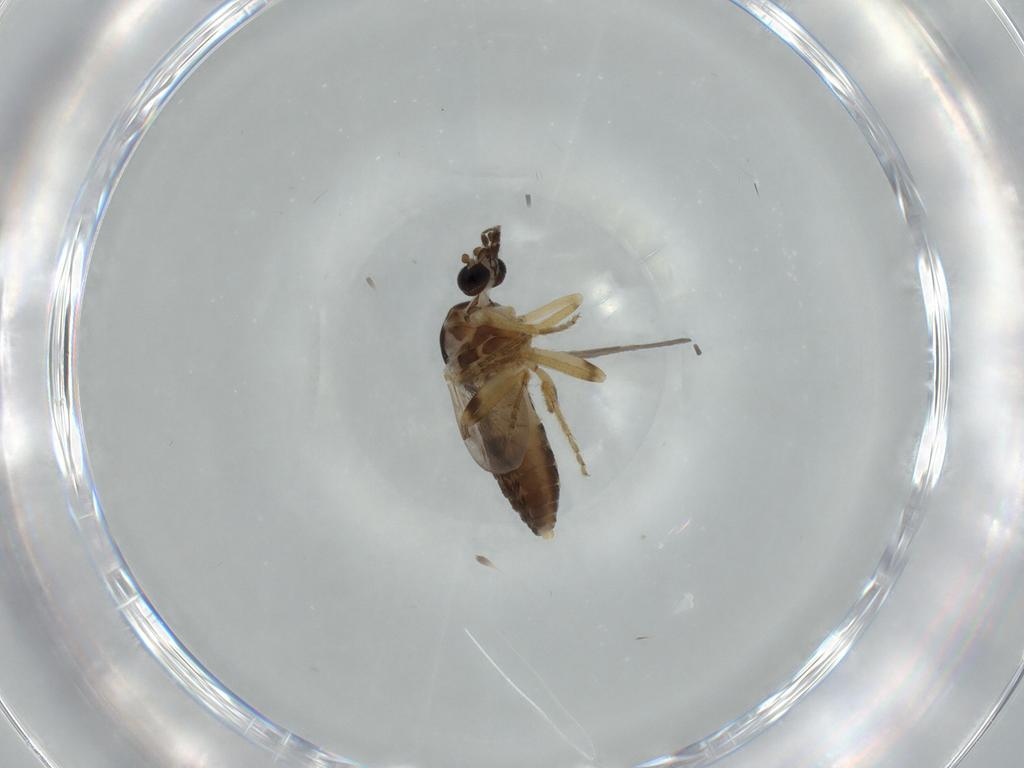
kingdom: Animalia
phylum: Arthropoda
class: Insecta
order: Diptera
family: Ceratopogonidae
